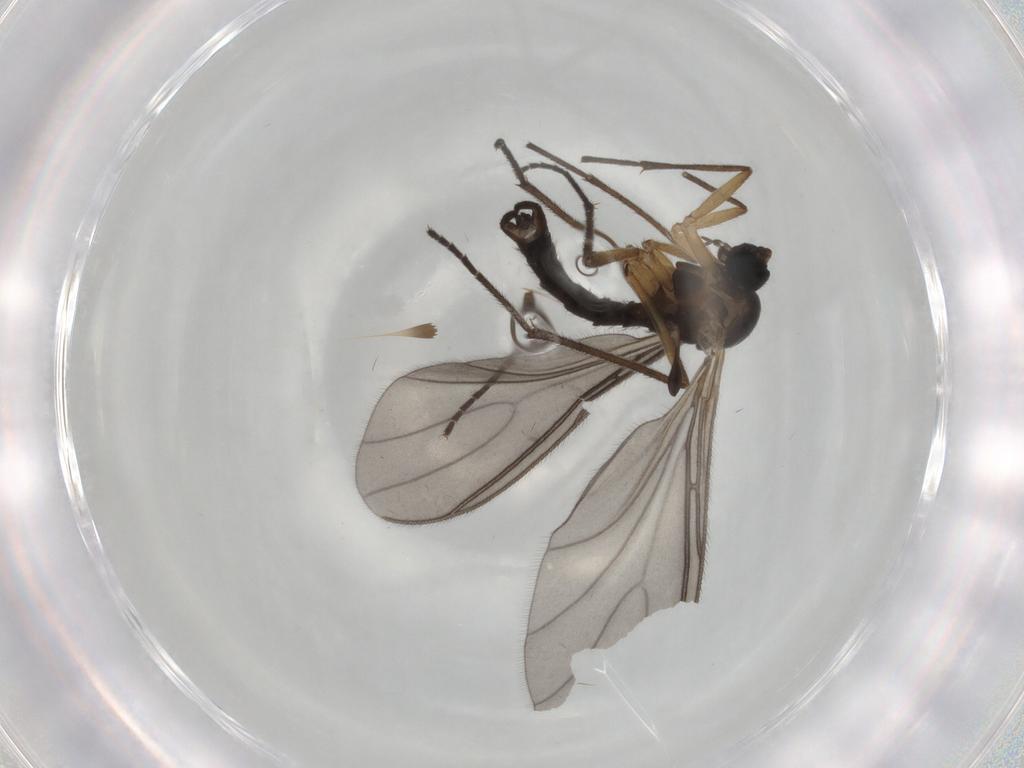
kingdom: Animalia
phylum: Arthropoda
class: Insecta
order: Diptera
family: Sciaridae
